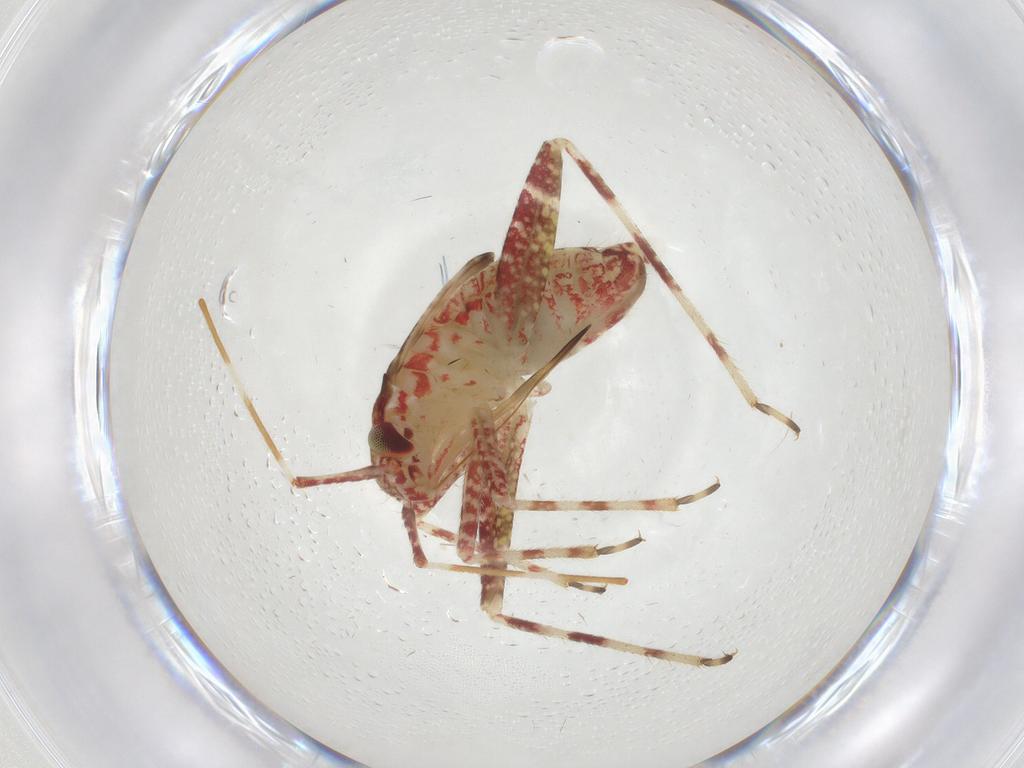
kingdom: Animalia
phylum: Arthropoda
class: Insecta
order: Hemiptera
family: Miridae
